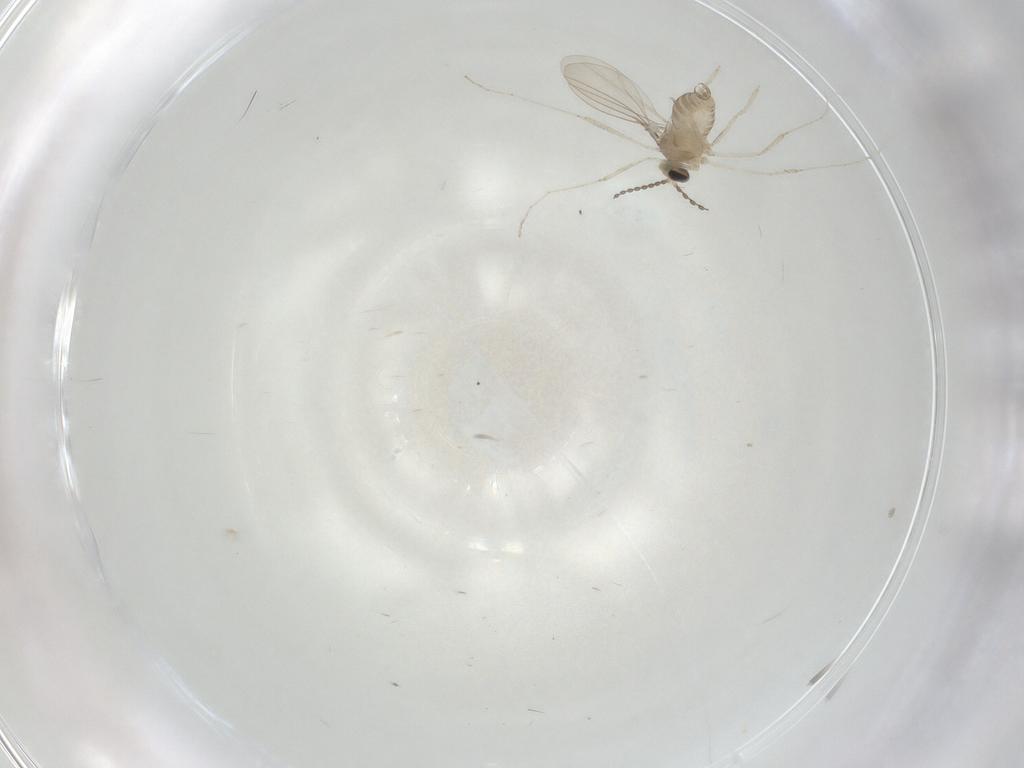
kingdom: Animalia
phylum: Arthropoda
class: Insecta
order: Diptera
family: Cecidomyiidae
